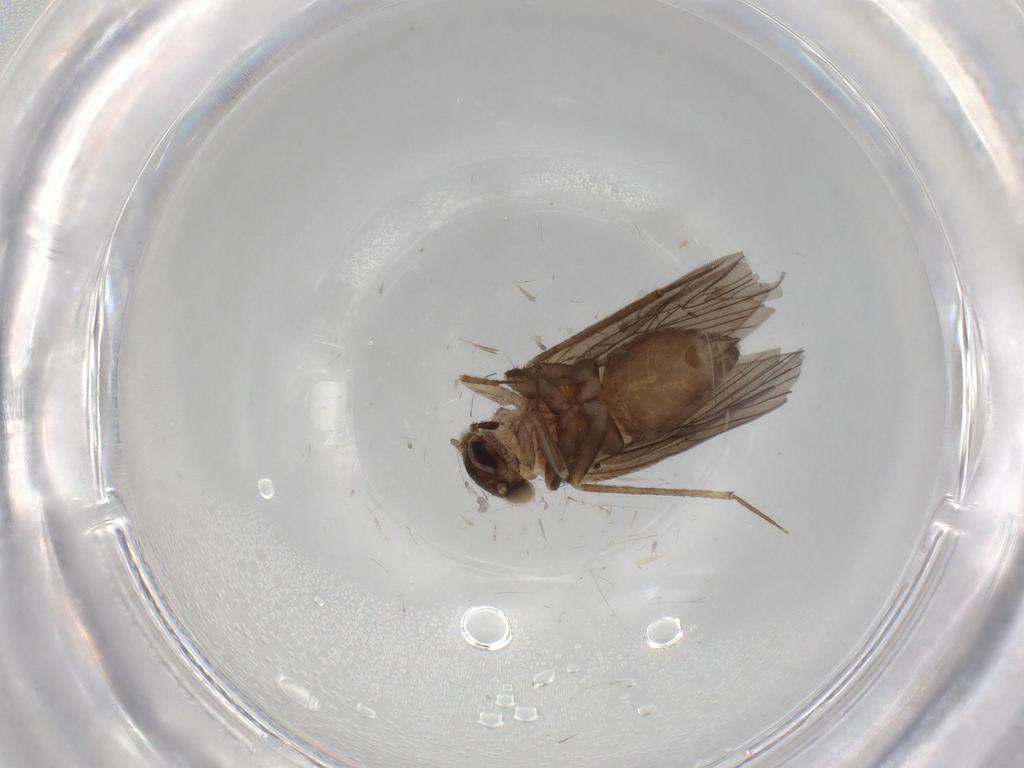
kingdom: Animalia
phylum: Arthropoda
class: Insecta
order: Psocodea
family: Lepidopsocidae
